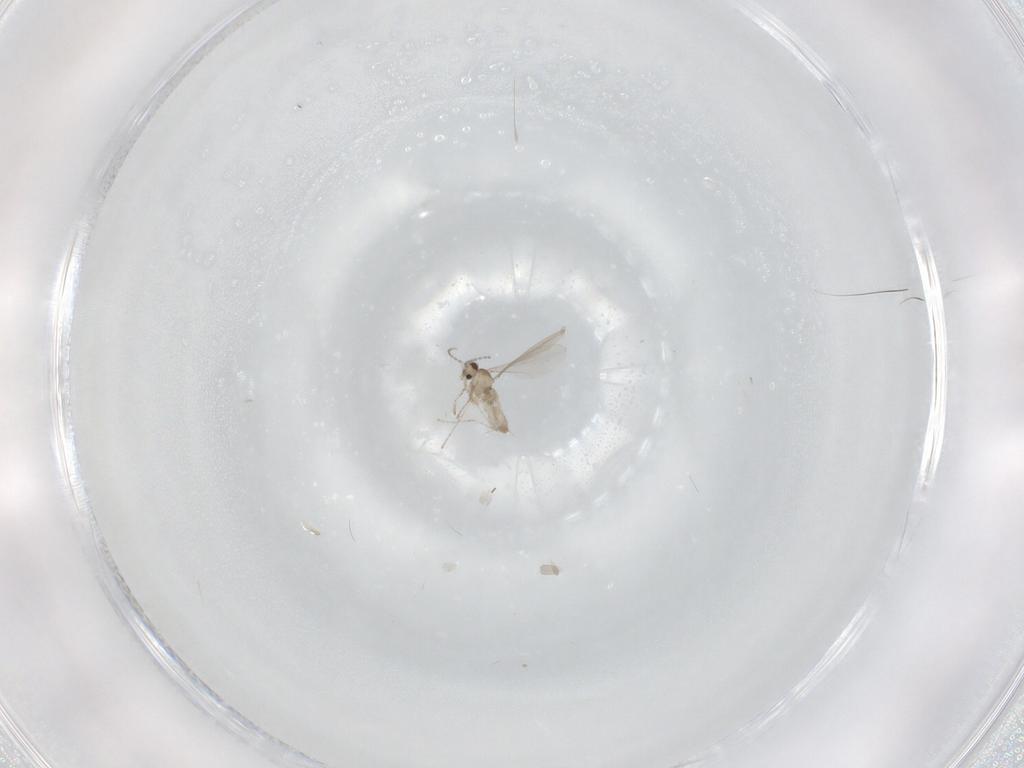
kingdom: Animalia
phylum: Arthropoda
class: Insecta
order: Diptera
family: Cecidomyiidae
